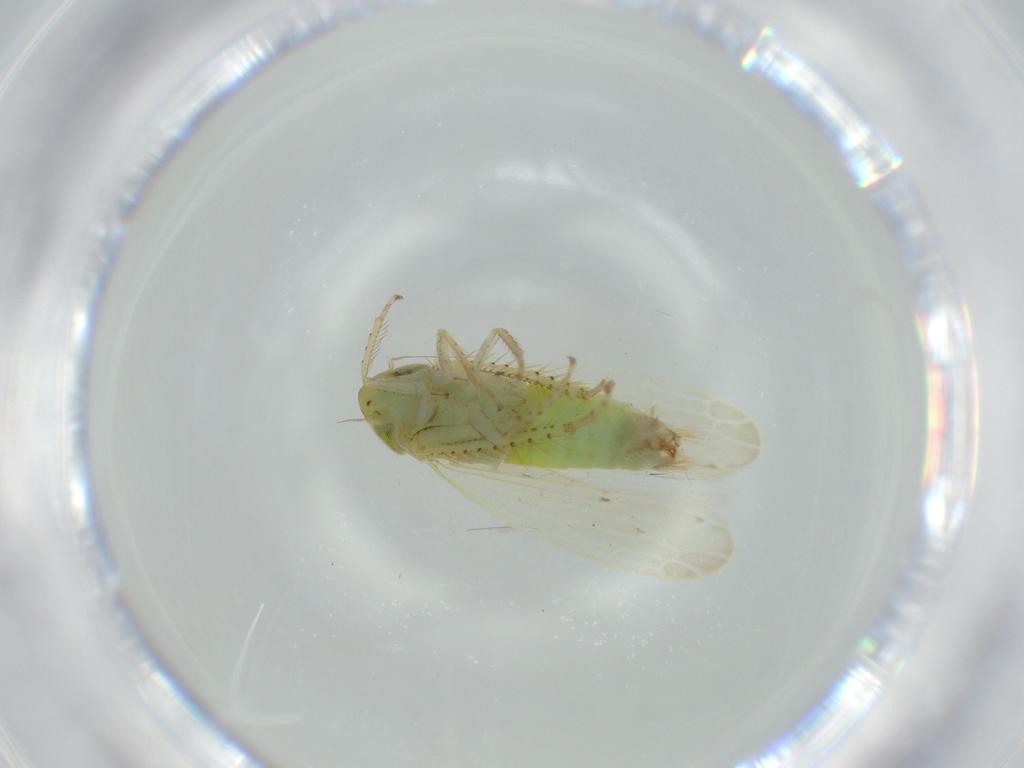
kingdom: Animalia
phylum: Arthropoda
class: Insecta
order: Hemiptera
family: Cicadellidae
